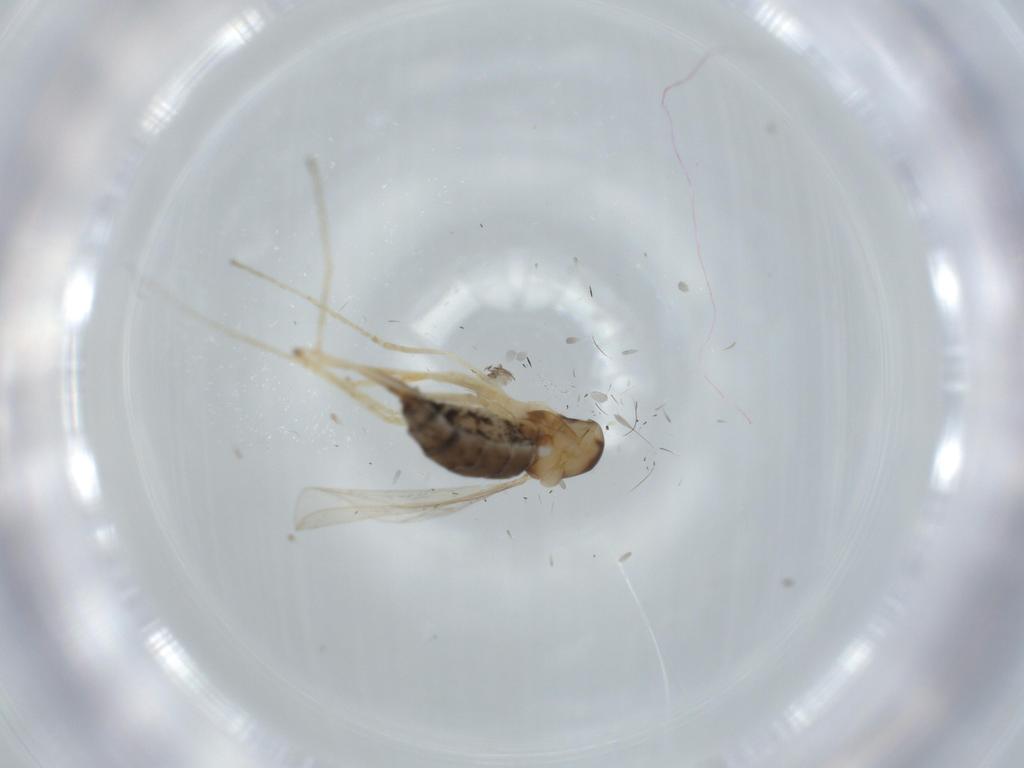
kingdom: Animalia
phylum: Arthropoda
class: Insecta
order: Diptera
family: Cecidomyiidae
